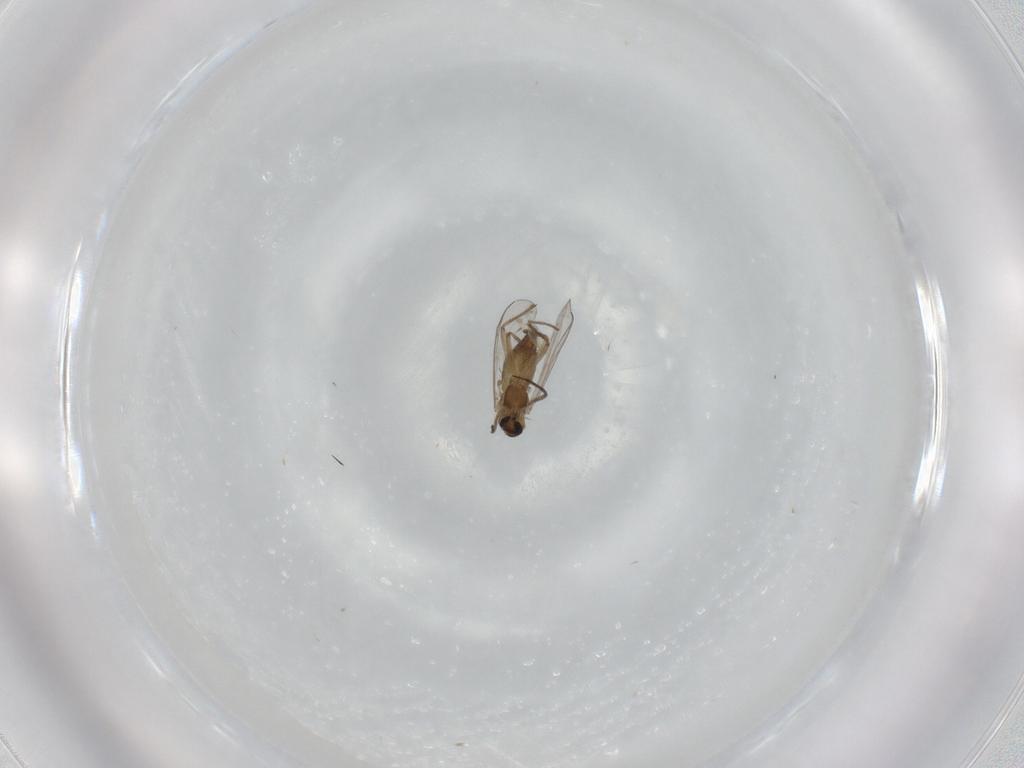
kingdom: Animalia
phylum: Arthropoda
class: Insecta
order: Diptera
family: Chironomidae
